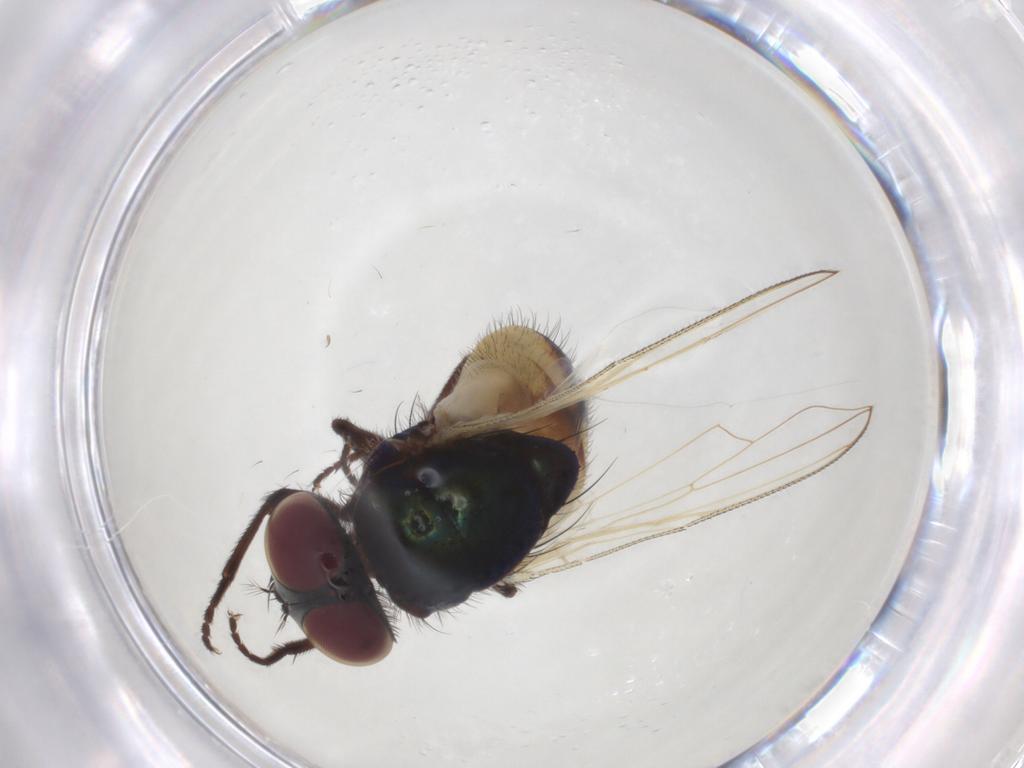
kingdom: Animalia
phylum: Arthropoda
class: Insecta
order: Diptera
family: Muscidae
